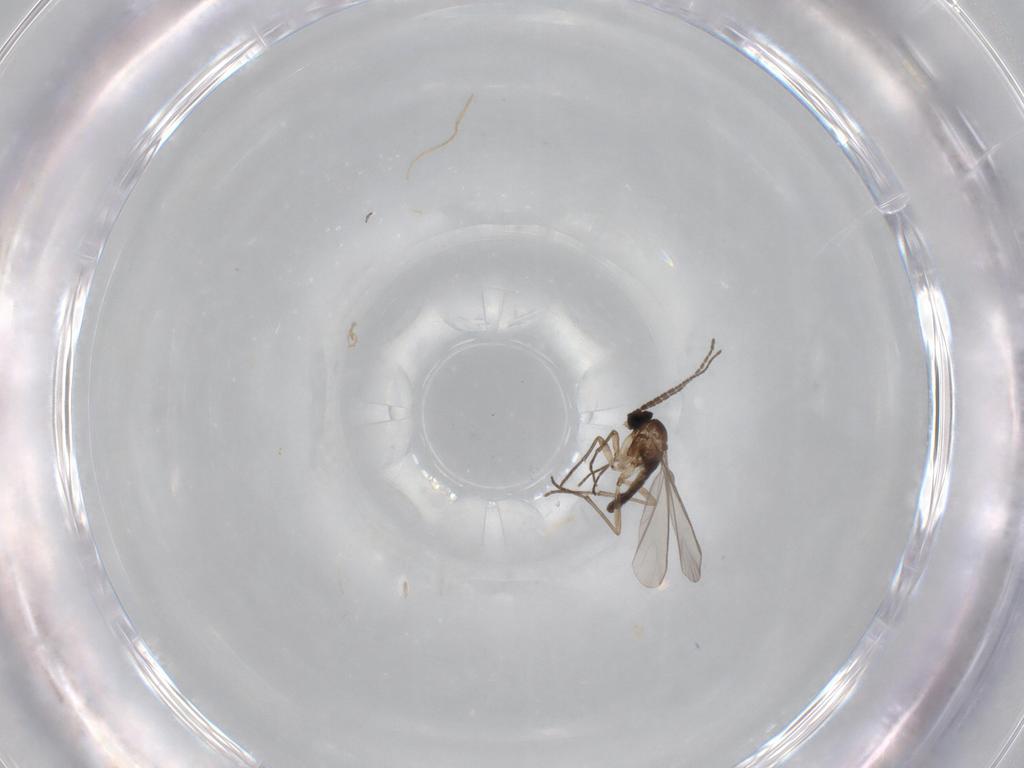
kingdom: Animalia
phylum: Arthropoda
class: Insecta
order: Diptera
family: Sciaridae
